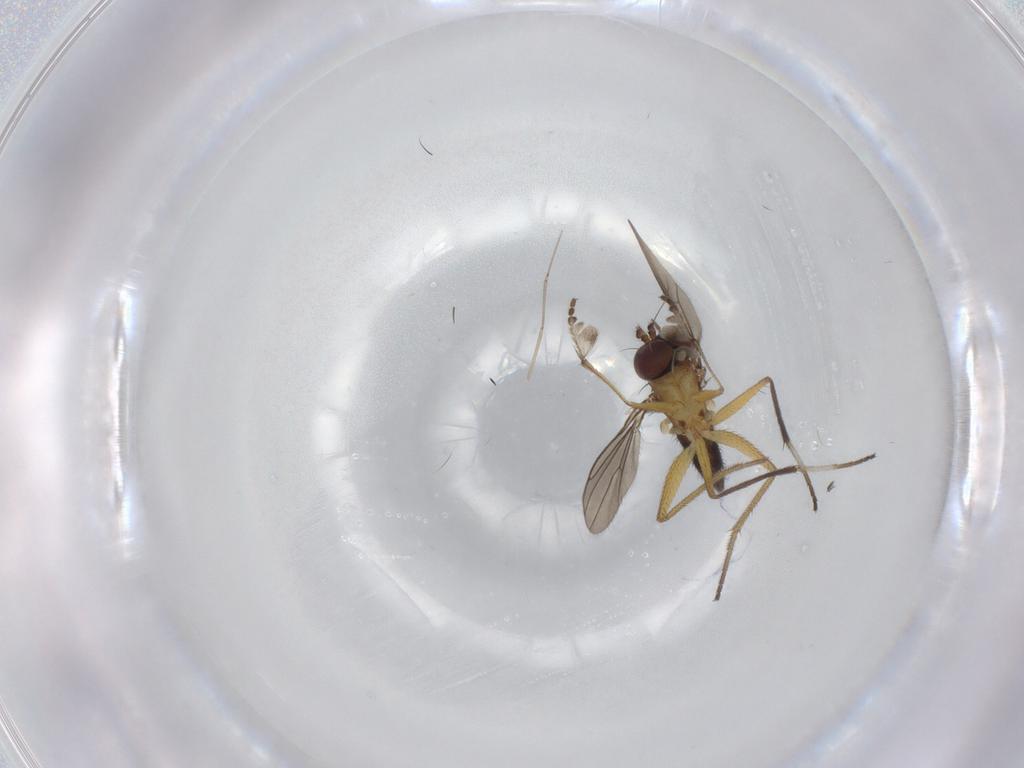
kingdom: Animalia
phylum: Arthropoda
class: Insecta
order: Diptera
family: Dolichopodidae
